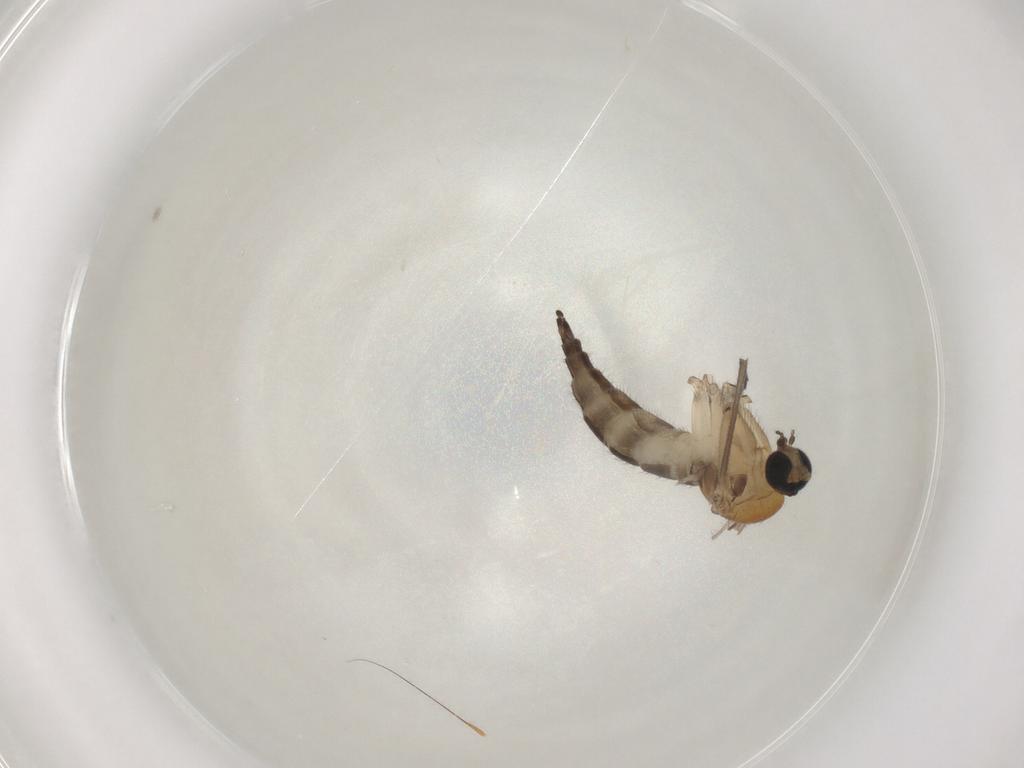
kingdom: Animalia
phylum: Arthropoda
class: Insecta
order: Diptera
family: Sciaridae
